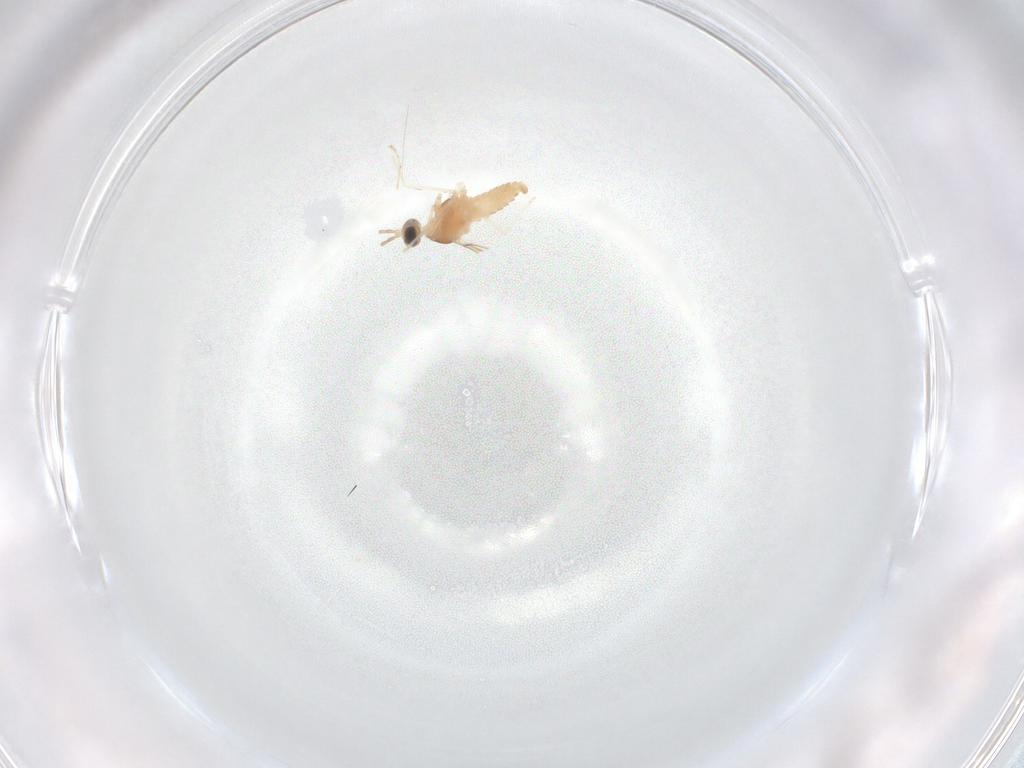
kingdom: Animalia
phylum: Arthropoda
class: Insecta
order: Diptera
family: Cecidomyiidae
